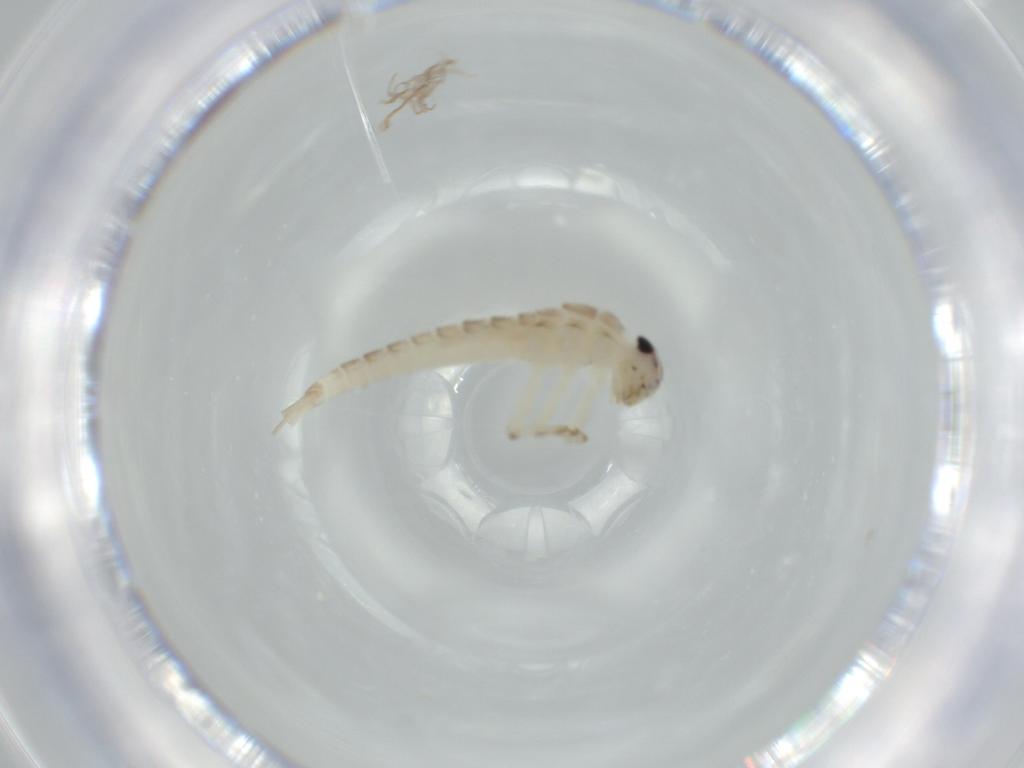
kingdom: Animalia
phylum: Arthropoda
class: Insecta
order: Ephemeroptera
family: Baetidae
